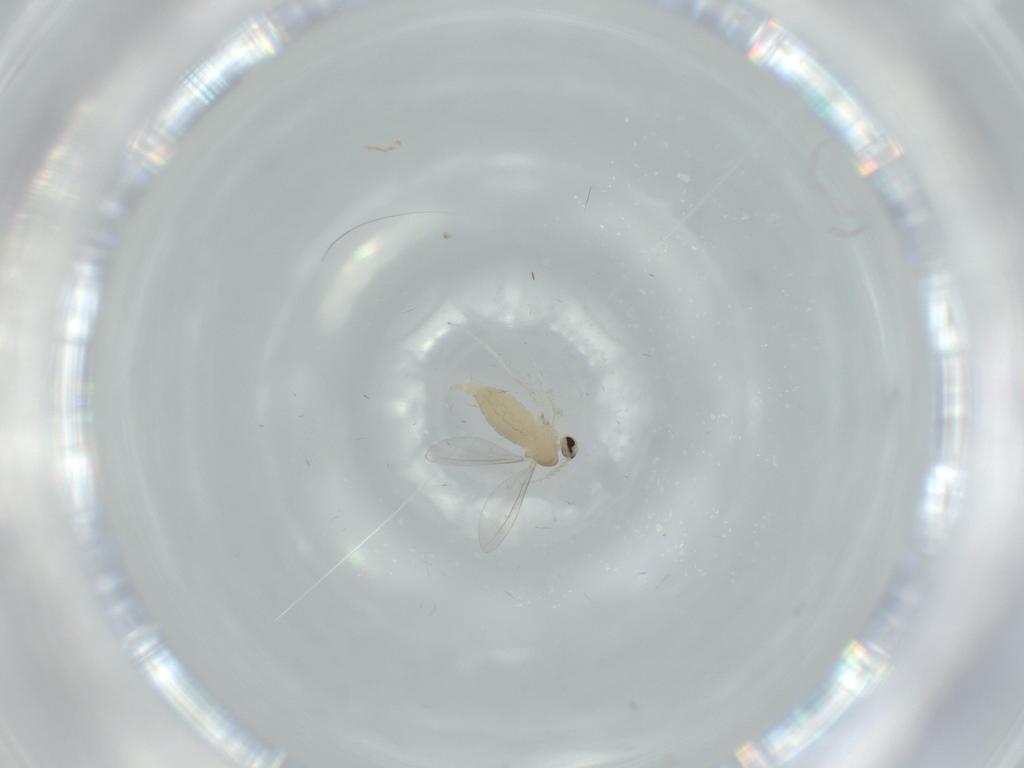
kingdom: Animalia
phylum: Arthropoda
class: Insecta
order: Diptera
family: Cecidomyiidae
